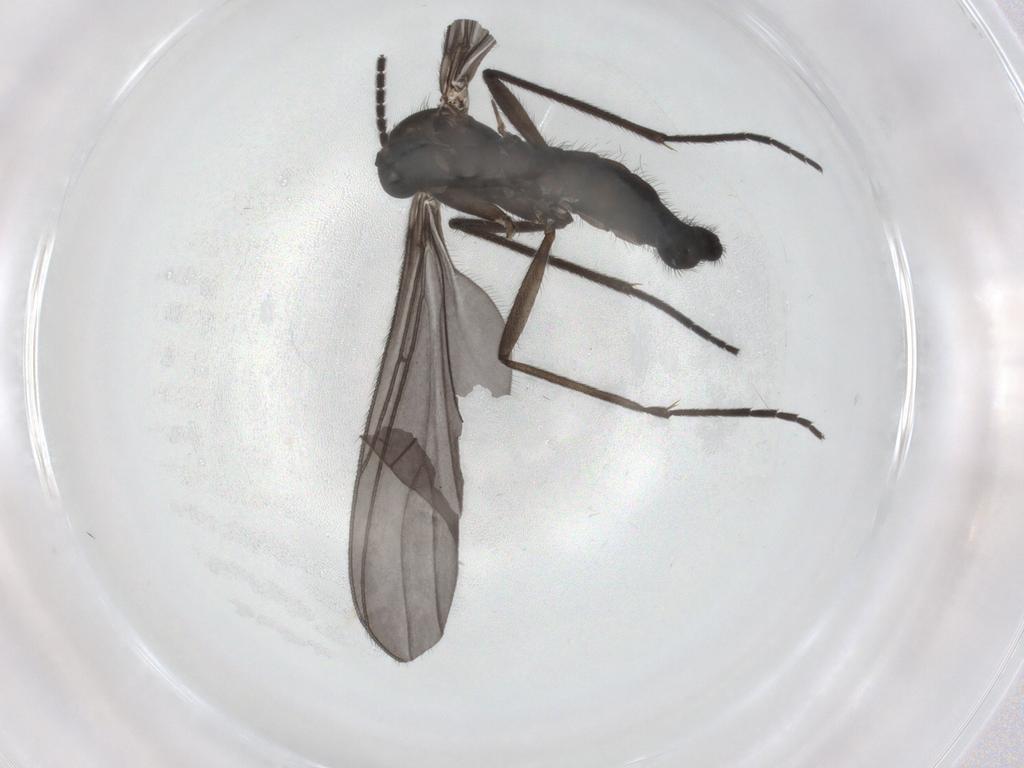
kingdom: Animalia
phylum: Arthropoda
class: Insecta
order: Diptera
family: Sciaridae
